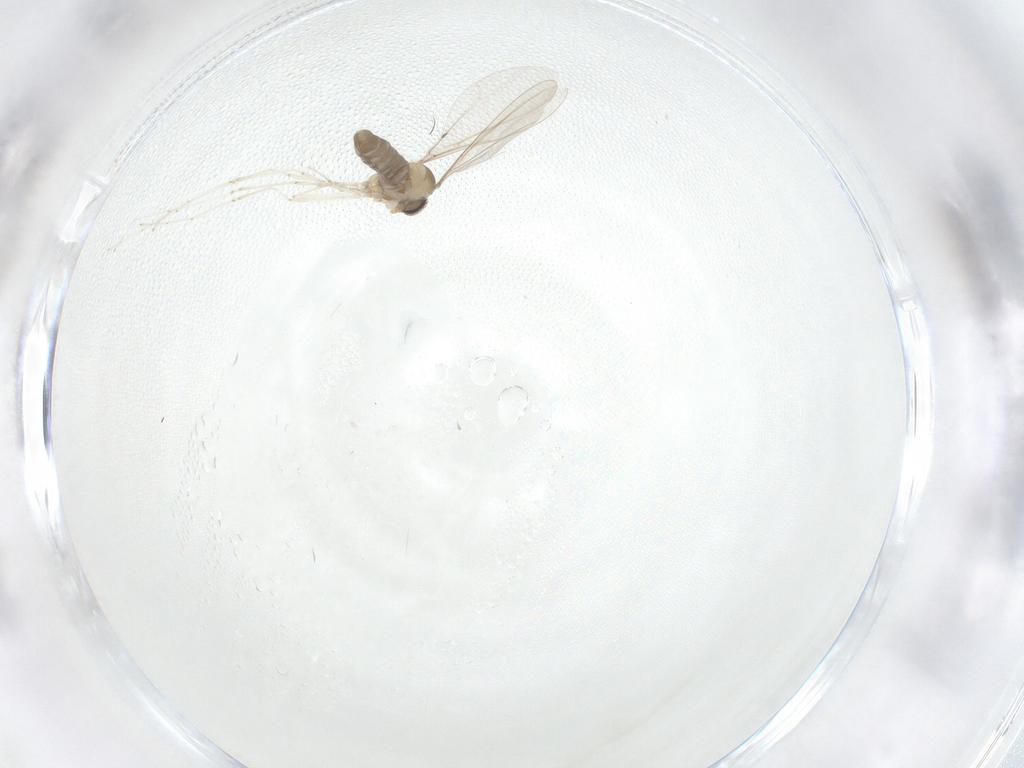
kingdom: Animalia
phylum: Arthropoda
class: Insecta
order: Diptera
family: Cecidomyiidae
